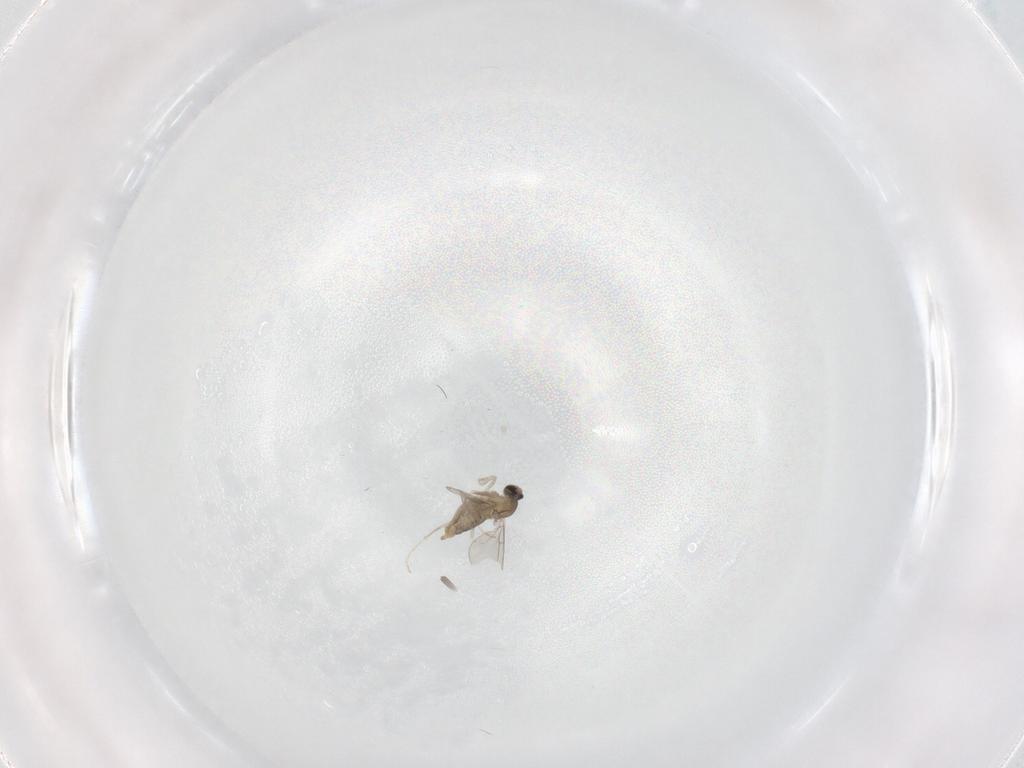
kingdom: Animalia
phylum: Arthropoda
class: Insecta
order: Diptera
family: Cecidomyiidae
